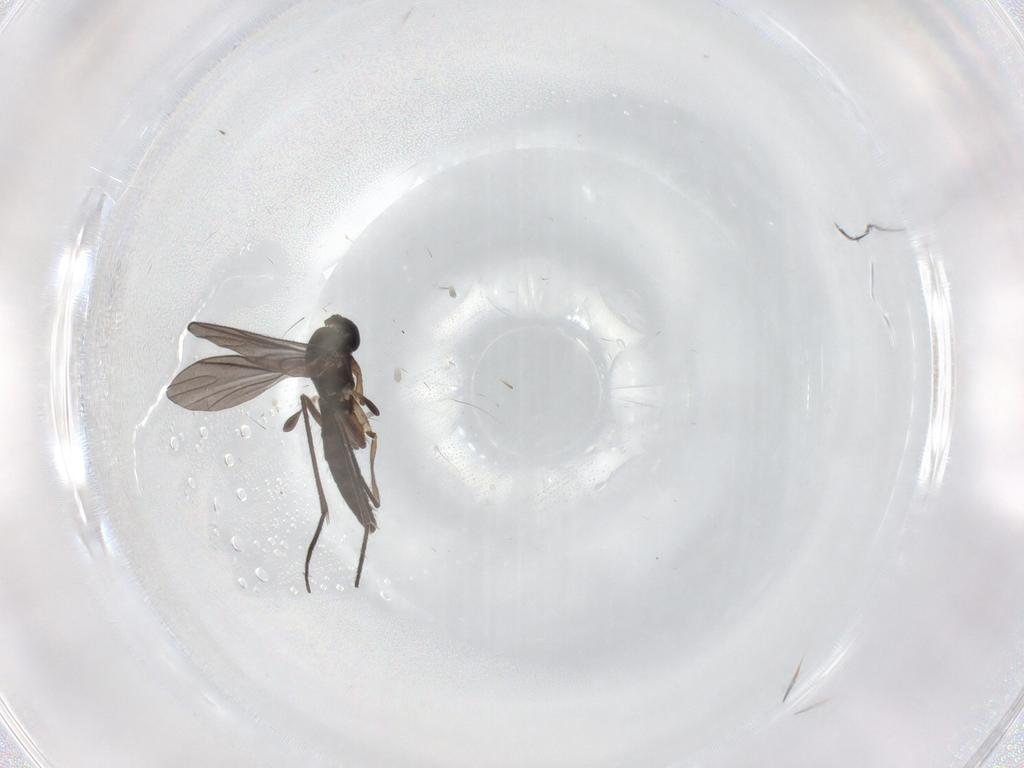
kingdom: Animalia
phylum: Arthropoda
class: Insecta
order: Diptera
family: Sciaridae
